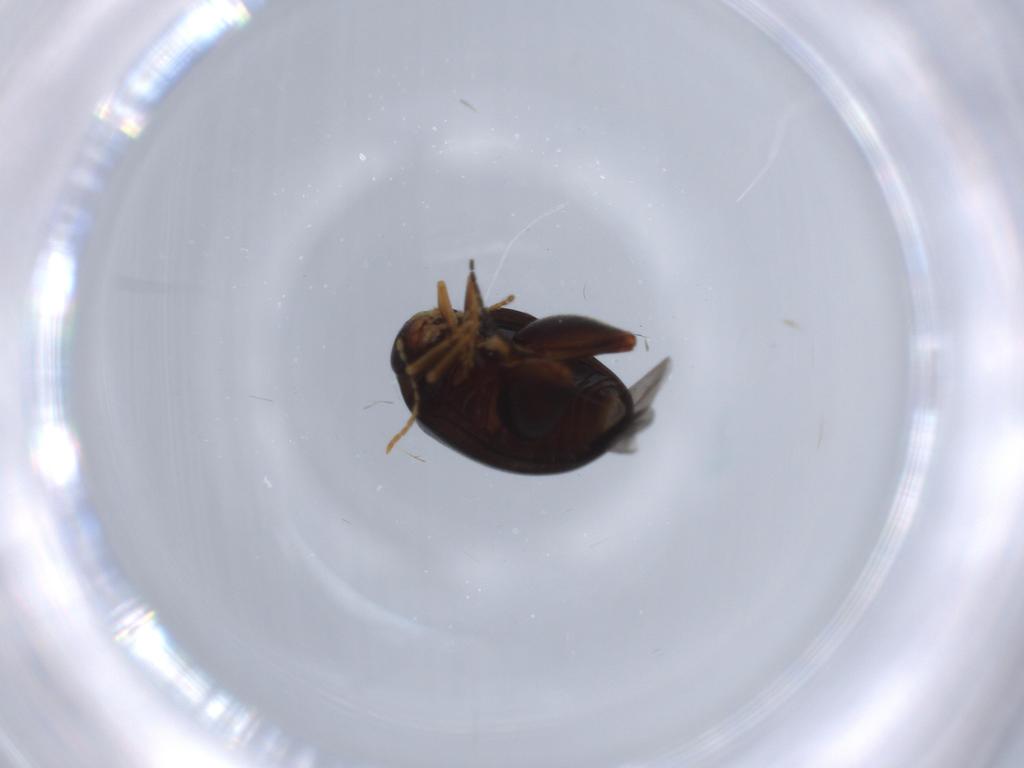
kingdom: Animalia
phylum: Arthropoda
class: Insecta
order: Coleoptera
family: Chrysomelidae
